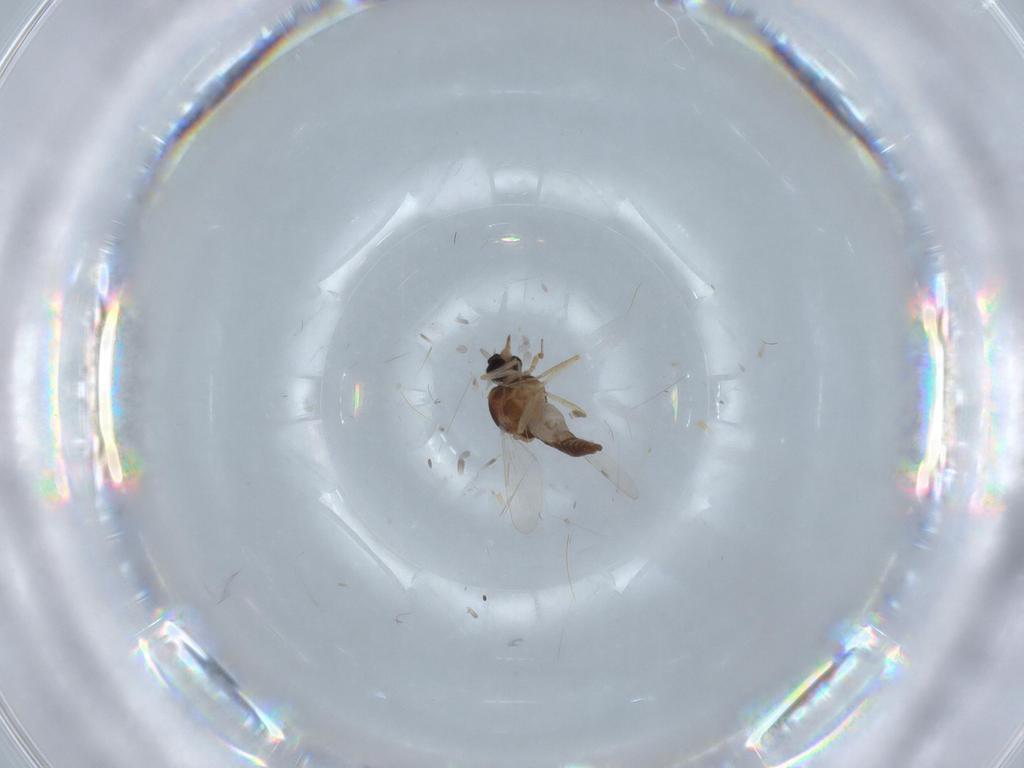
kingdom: Animalia
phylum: Arthropoda
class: Insecta
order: Diptera
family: Ceratopogonidae
